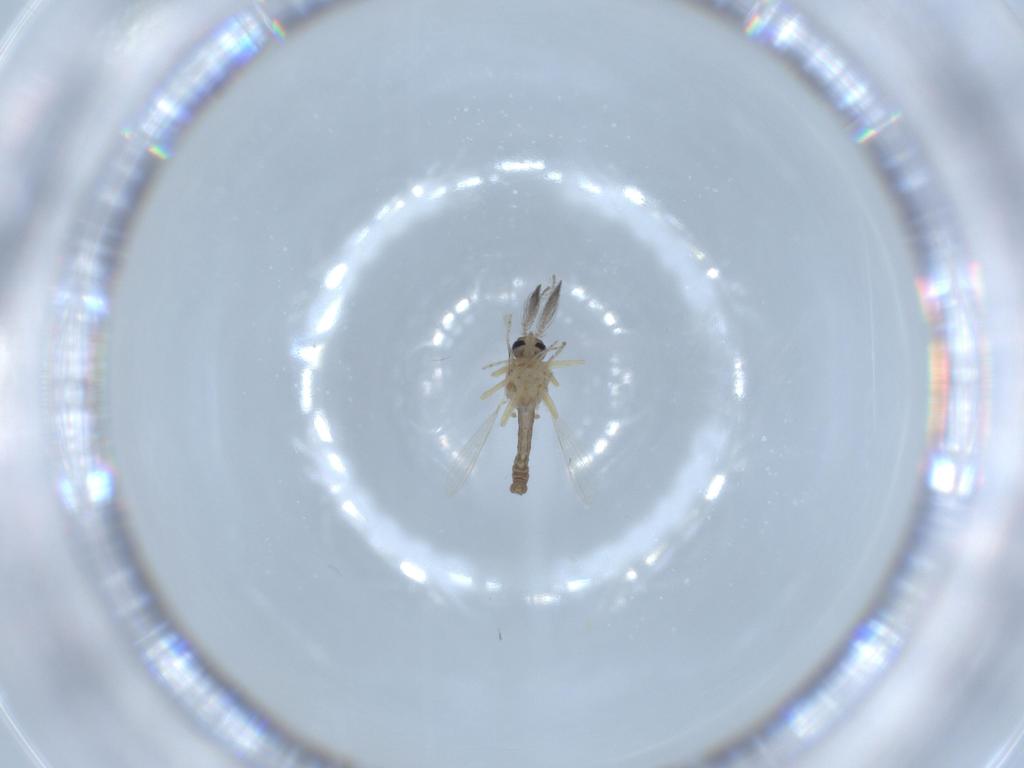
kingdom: Animalia
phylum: Arthropoda
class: Insecta
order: Diptera
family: Ceratopogonidae
